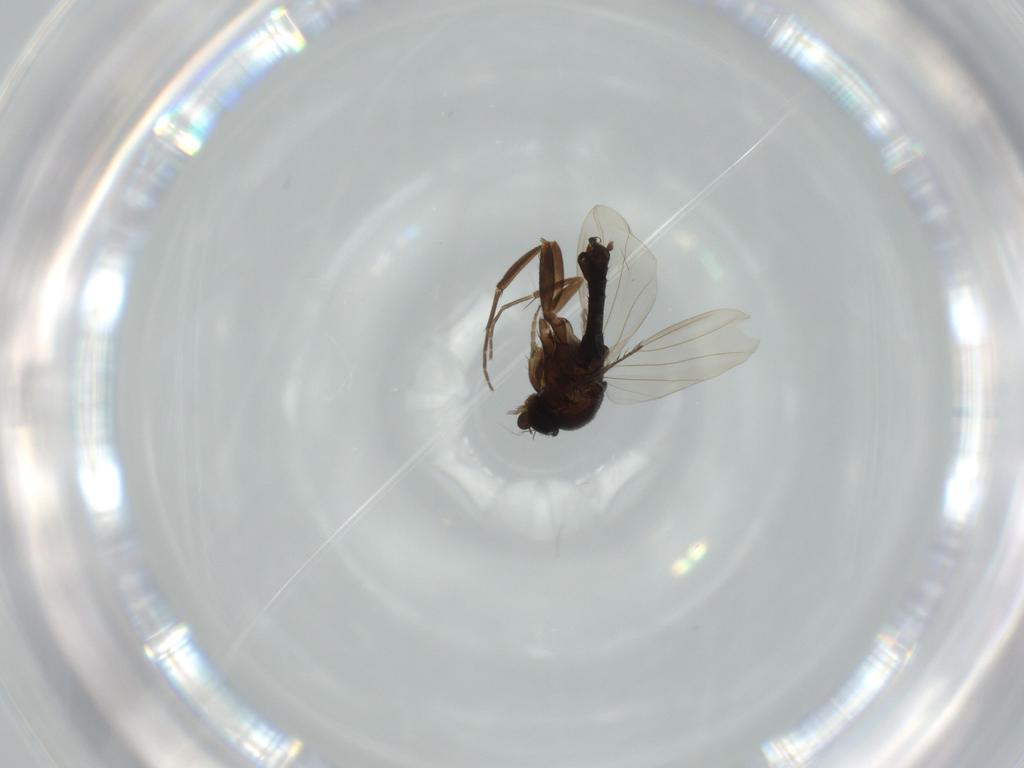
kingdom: Animalia
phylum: Arthropoda
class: Insecta
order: Diptera
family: Phoridae
